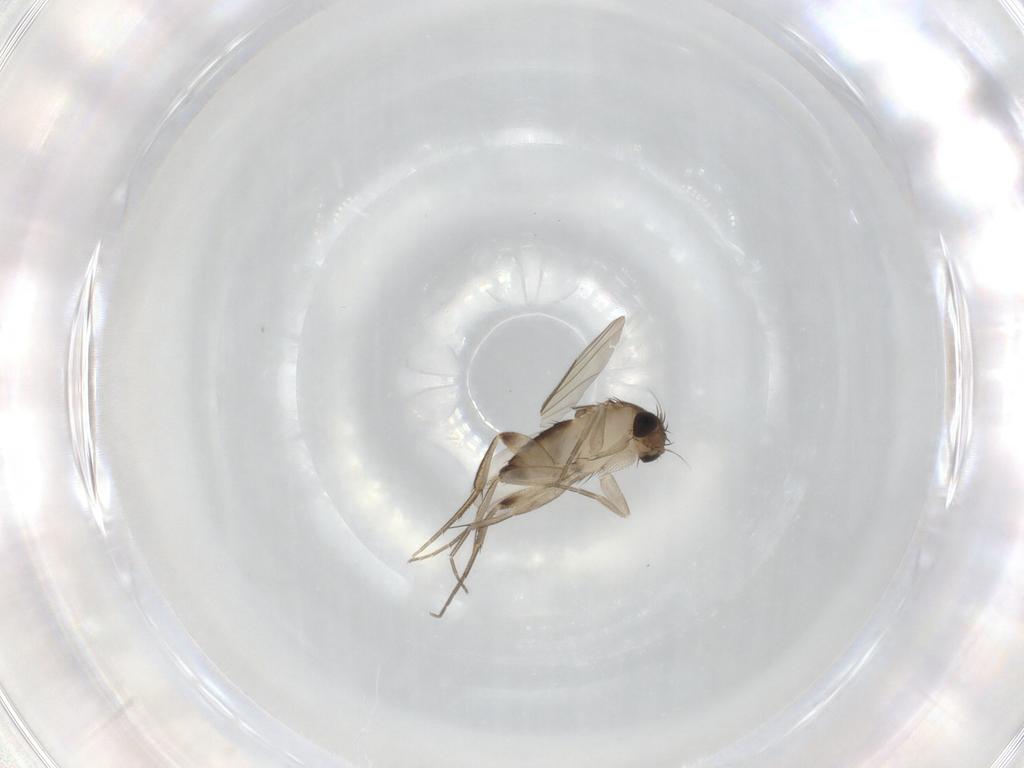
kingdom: Animalia
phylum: Arthropoda
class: Insecta
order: Diptera
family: Phoridae
